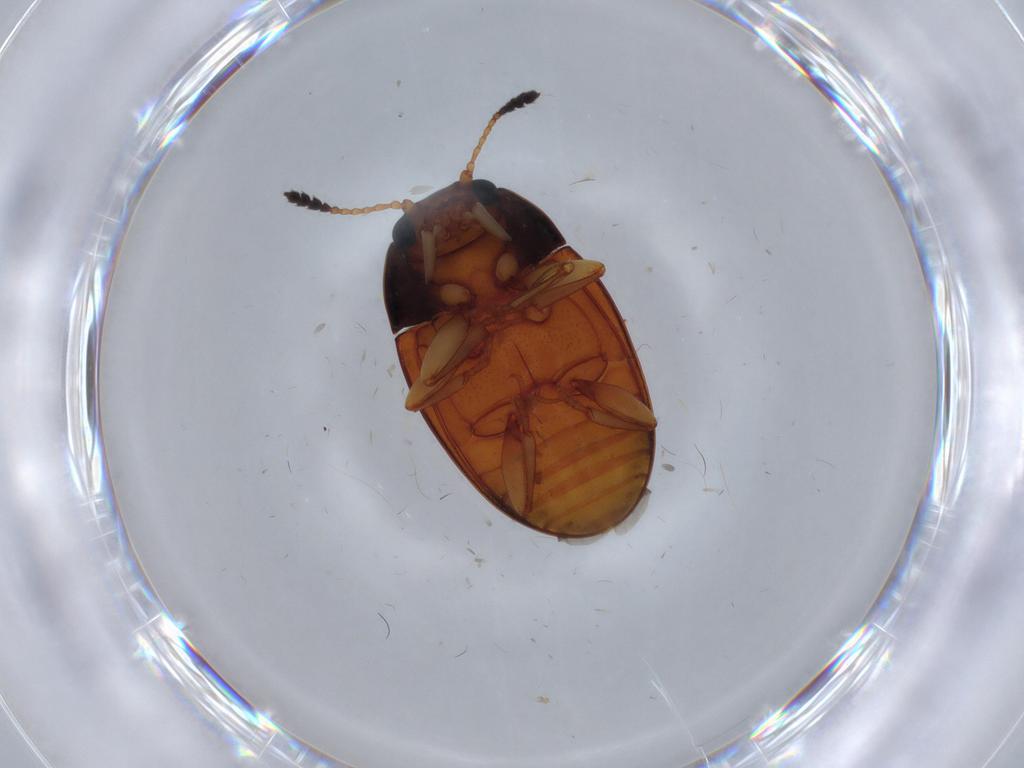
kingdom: Animalia
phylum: Arthropoda
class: Insecta
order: Coleoptera
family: Erotylidae
